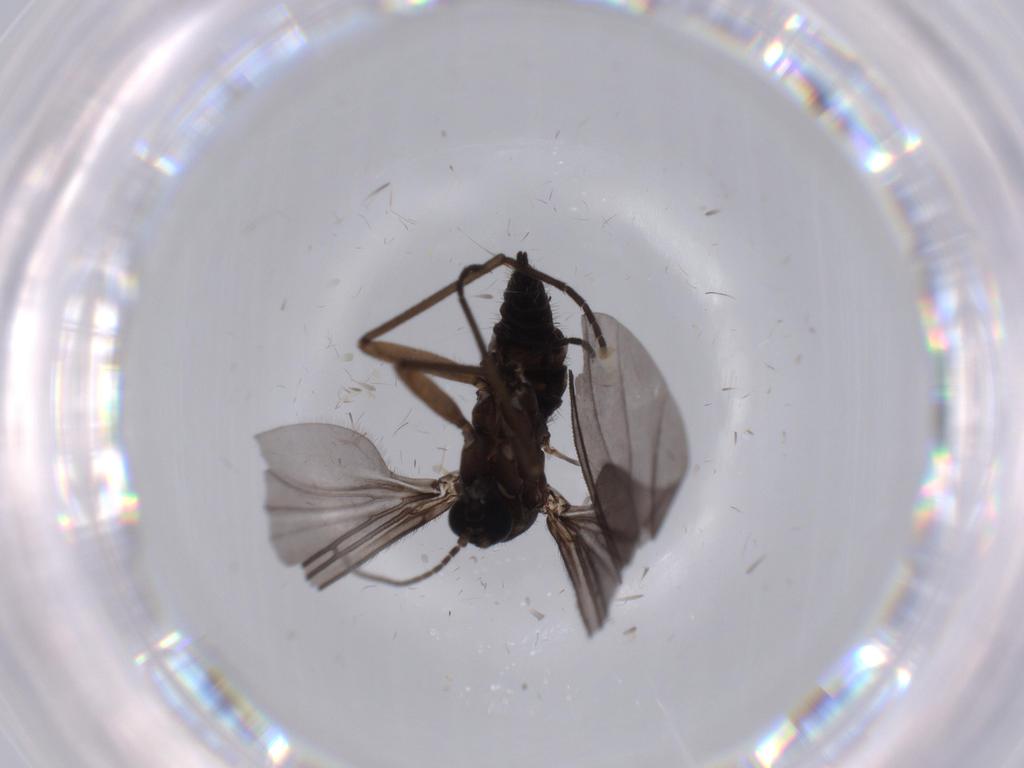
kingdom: Animalia
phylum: Arthropoda
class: Insecta
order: Diptera
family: Sciaridae
